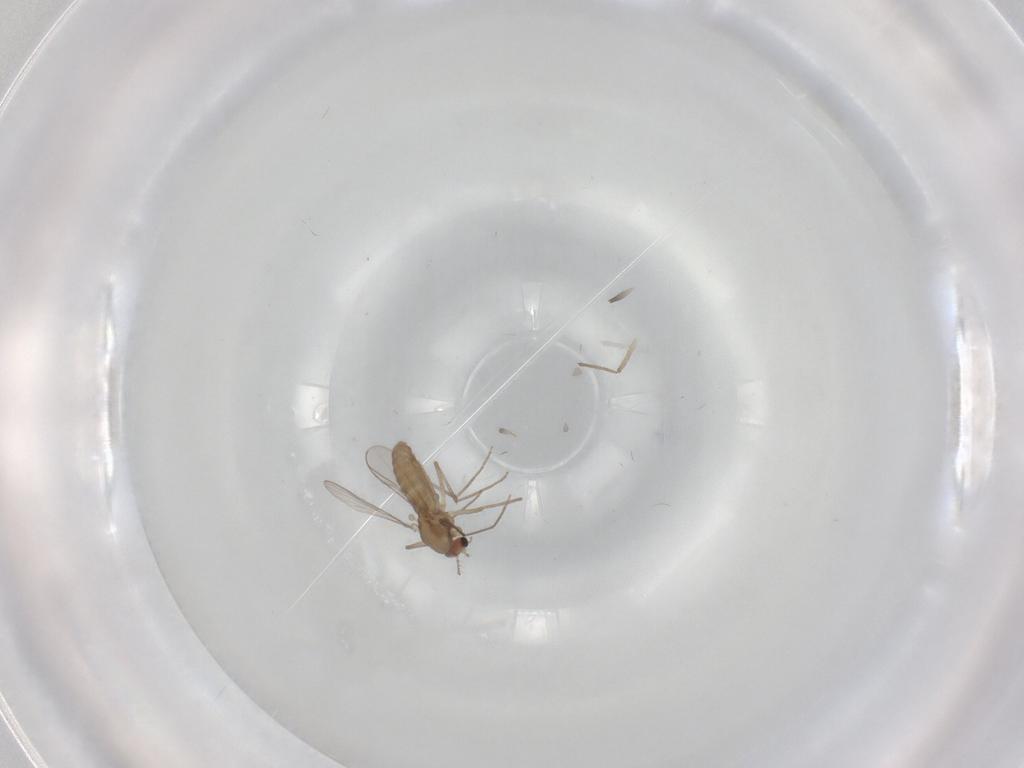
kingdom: Animalia
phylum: Arthropoda
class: Insecta
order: Diptera
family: Chironomidae
